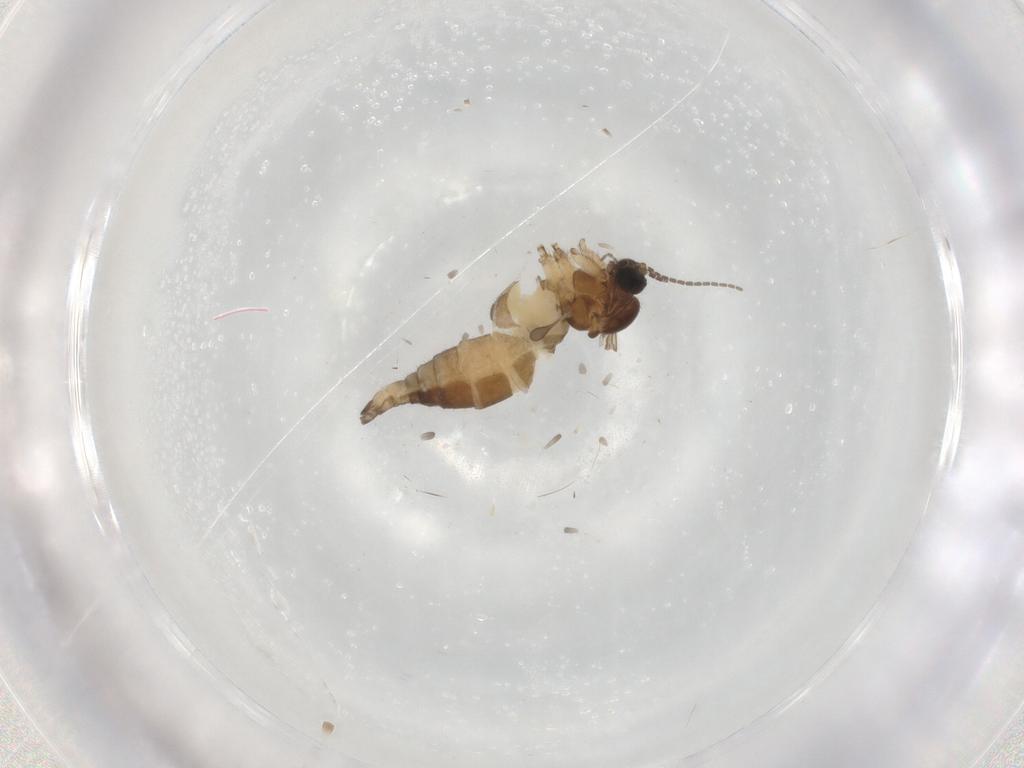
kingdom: Animalia
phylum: Arthropoda
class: Insecta
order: Diptera
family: Sciaridae
